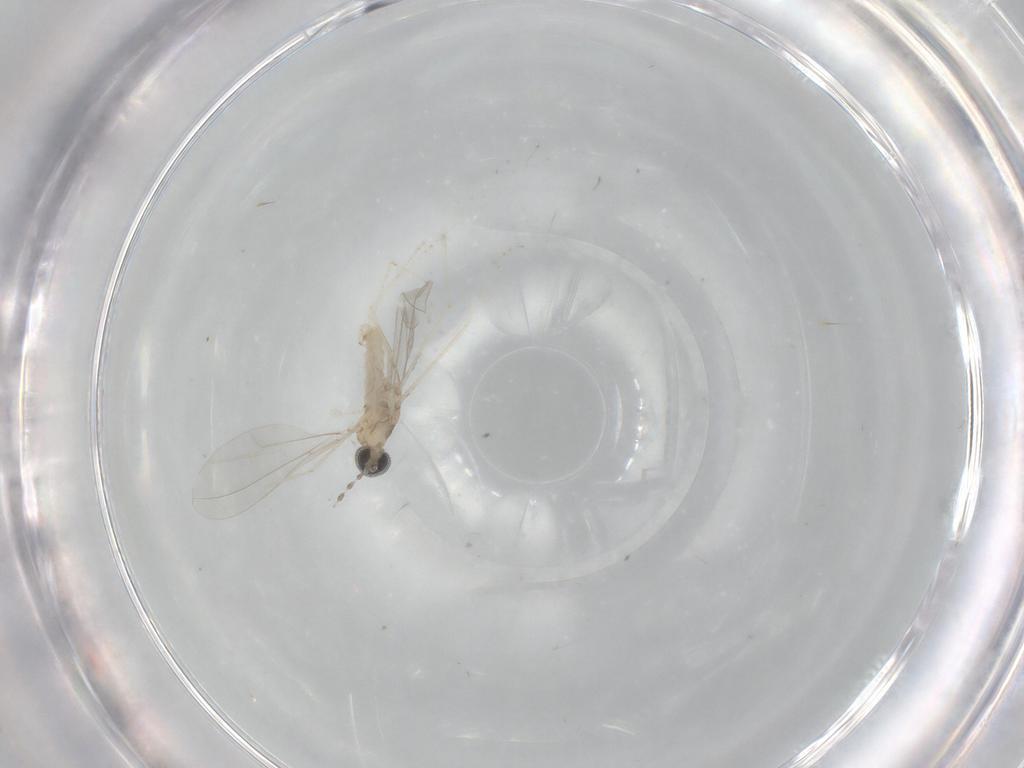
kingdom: Animalia
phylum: Arthropoda
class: Insecta
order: Diptera
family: Cecidomyiidae
